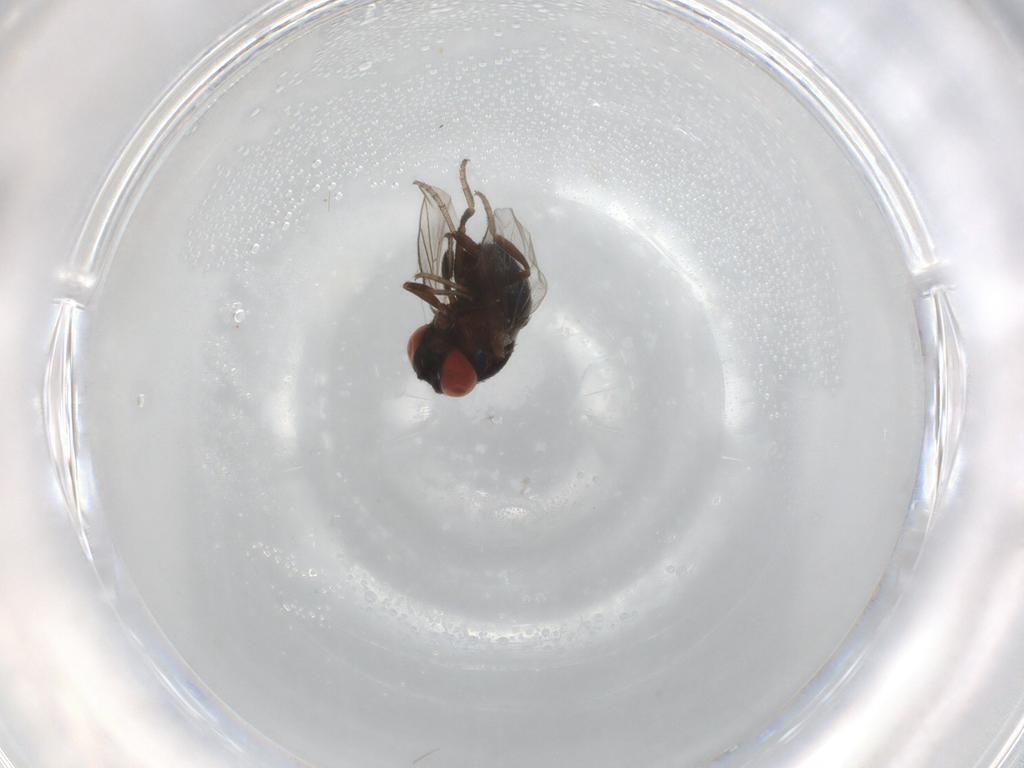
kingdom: Animalia
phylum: Arthropoda
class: Insecta
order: Diptera
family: Cryptochetidae
